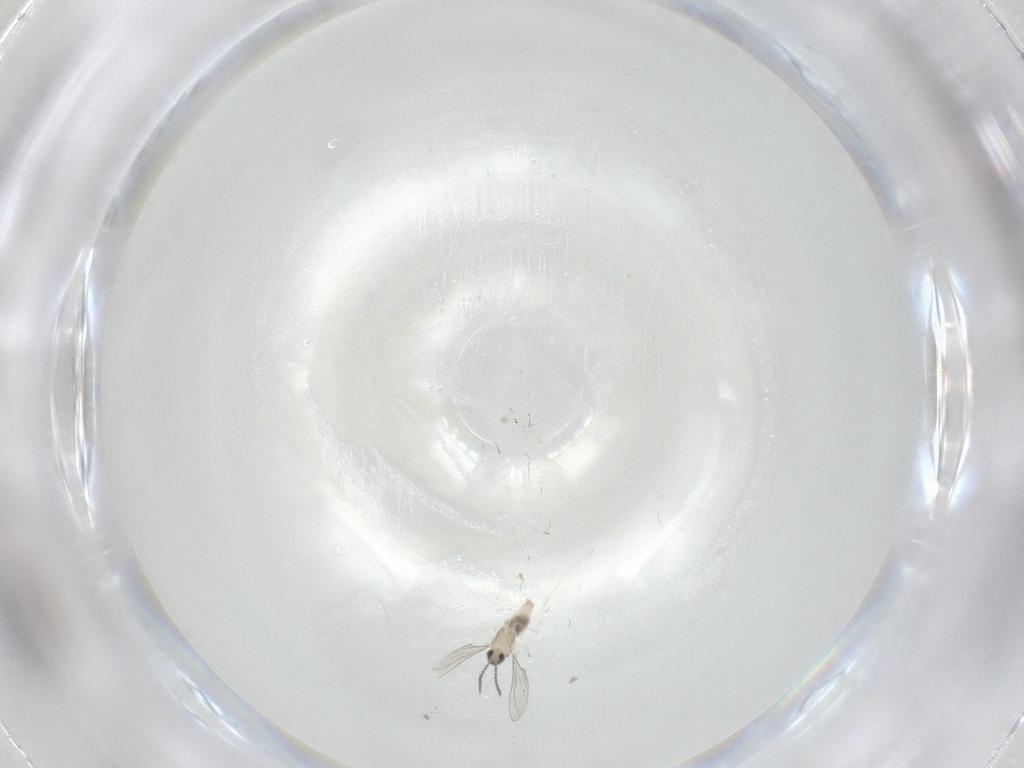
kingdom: Animalia
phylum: Arthropoda
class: Insecta
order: Diptera
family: Cecidomyiidae
